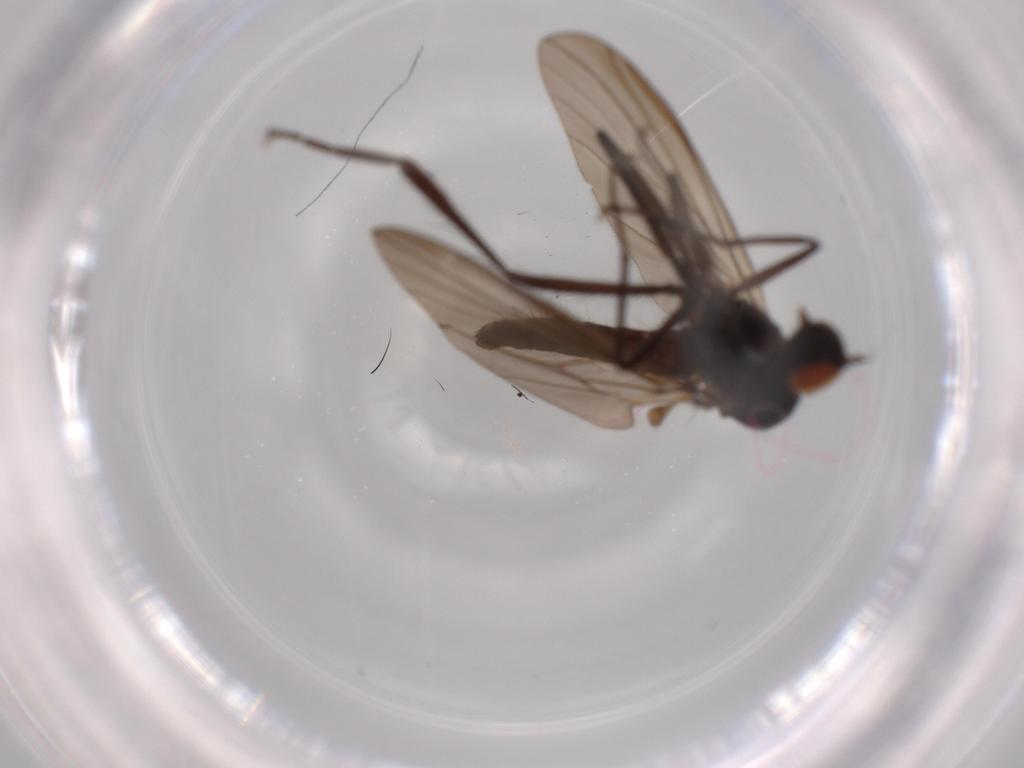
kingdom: Animalia
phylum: Arthropoda
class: Insecta
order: Diptera
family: Hybotidae
